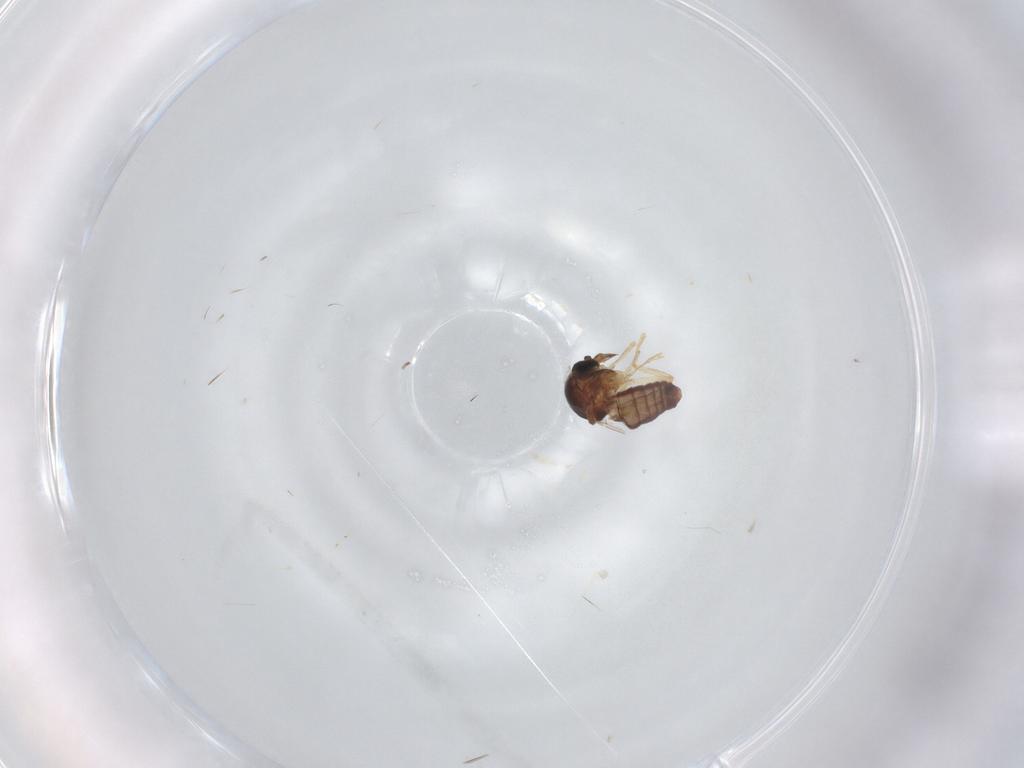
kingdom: Animalia
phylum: Arthropoda
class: Insecta
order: Diptera
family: Ceratopogonidae
